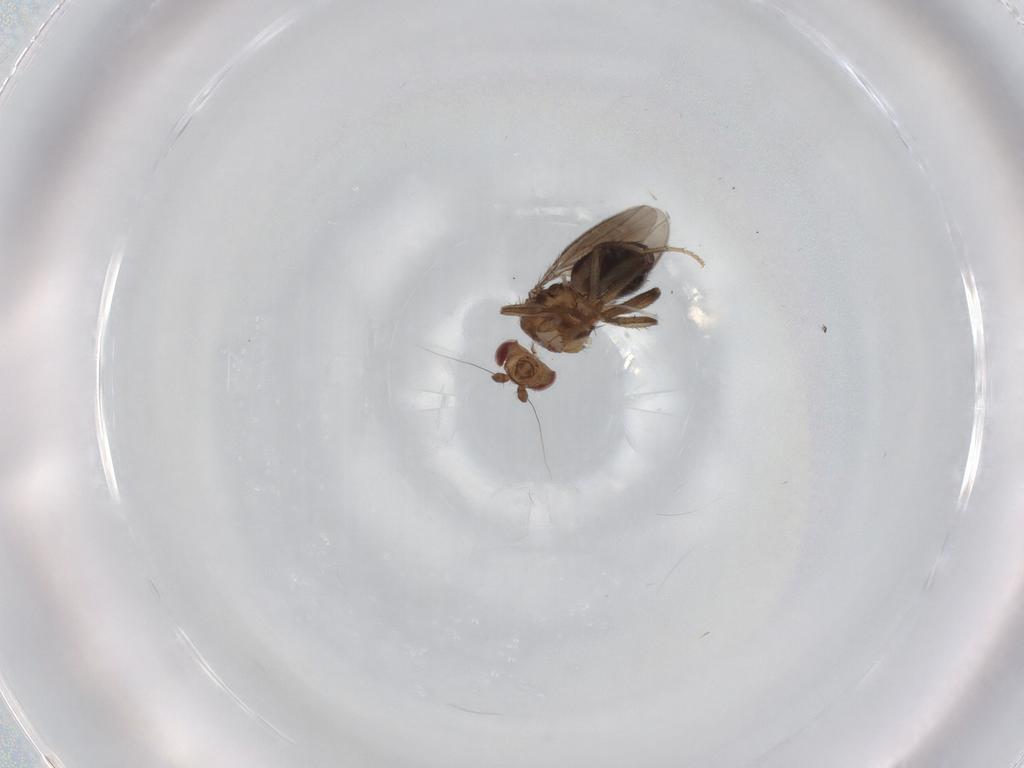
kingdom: Animalia
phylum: Arthropoda
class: Insecta
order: Diptera
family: Sphaeroceridae
